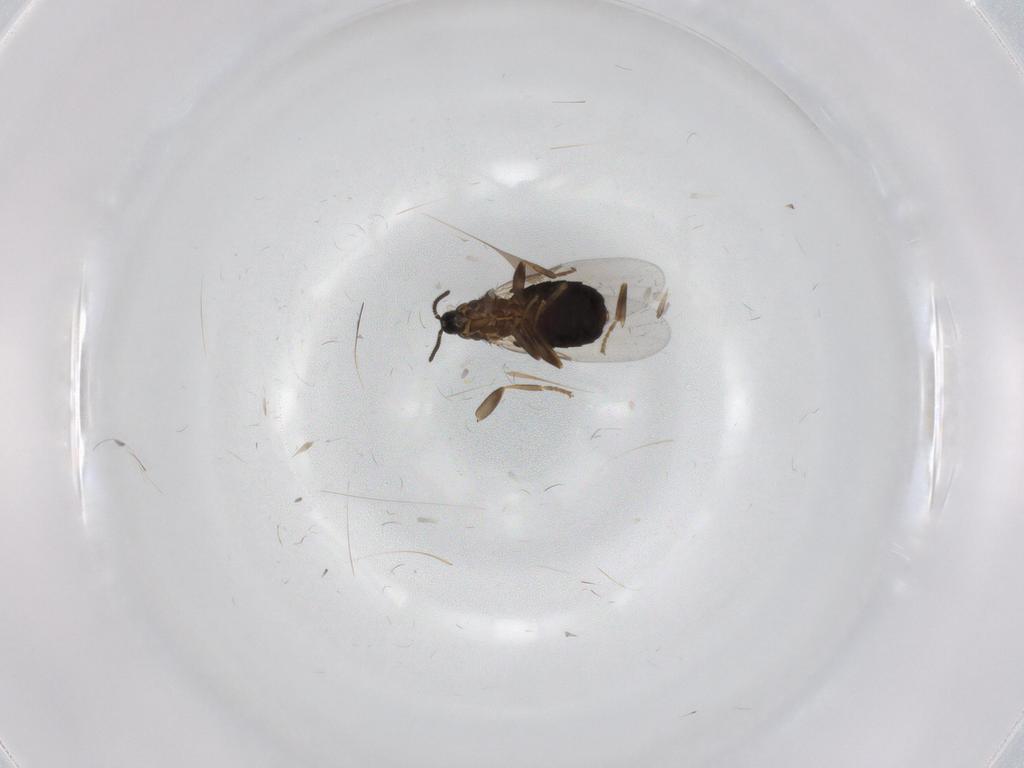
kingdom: Animalia
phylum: Arthropoda
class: Insecta
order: Diptera
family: Scatopsidae
